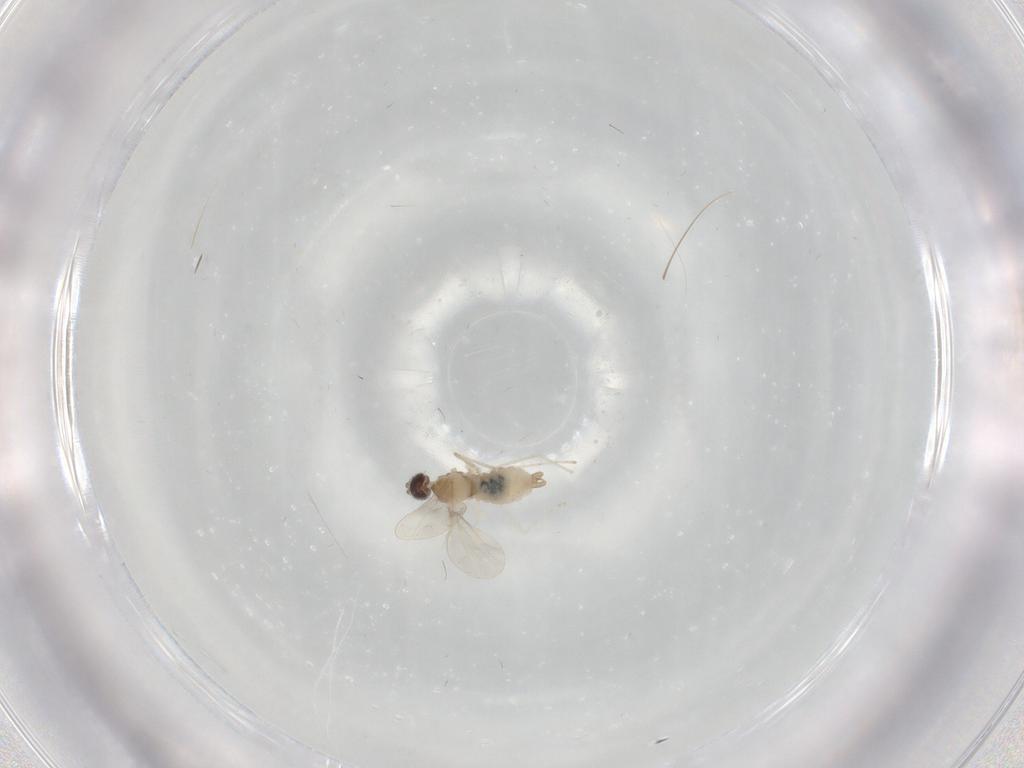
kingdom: Animalia
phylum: Arthropoda
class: Insecta
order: Diptera
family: Cecidomyiidae
